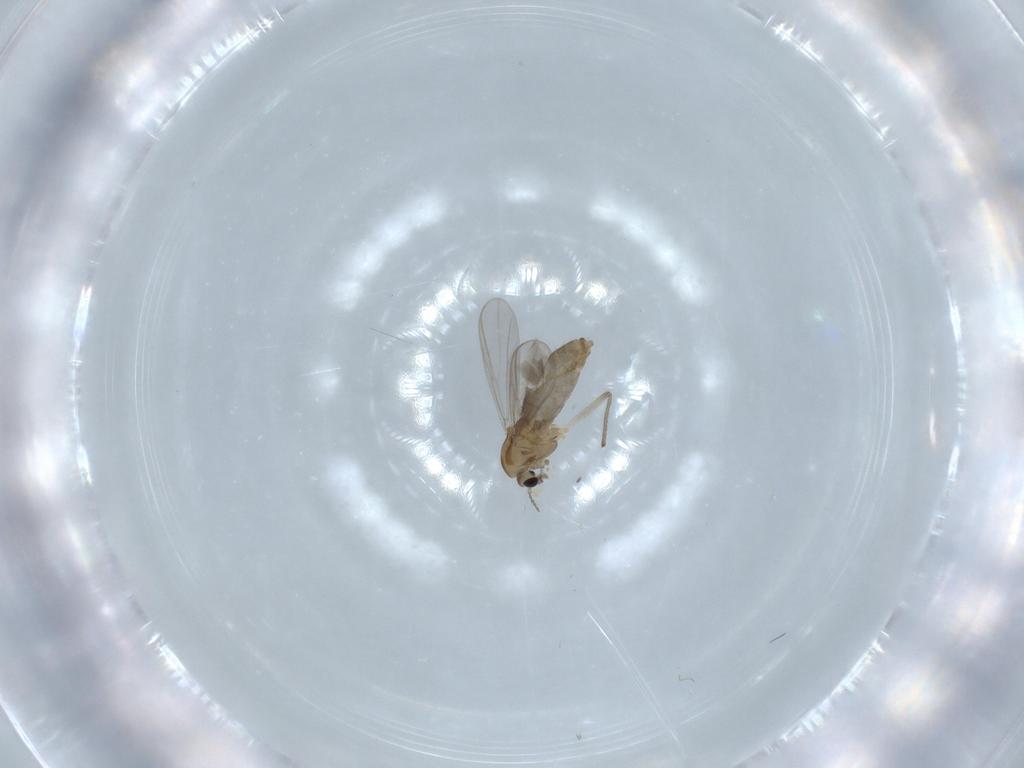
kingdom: Animalia
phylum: Arthropoda
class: Insecta
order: Diptera
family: Chironomidae
